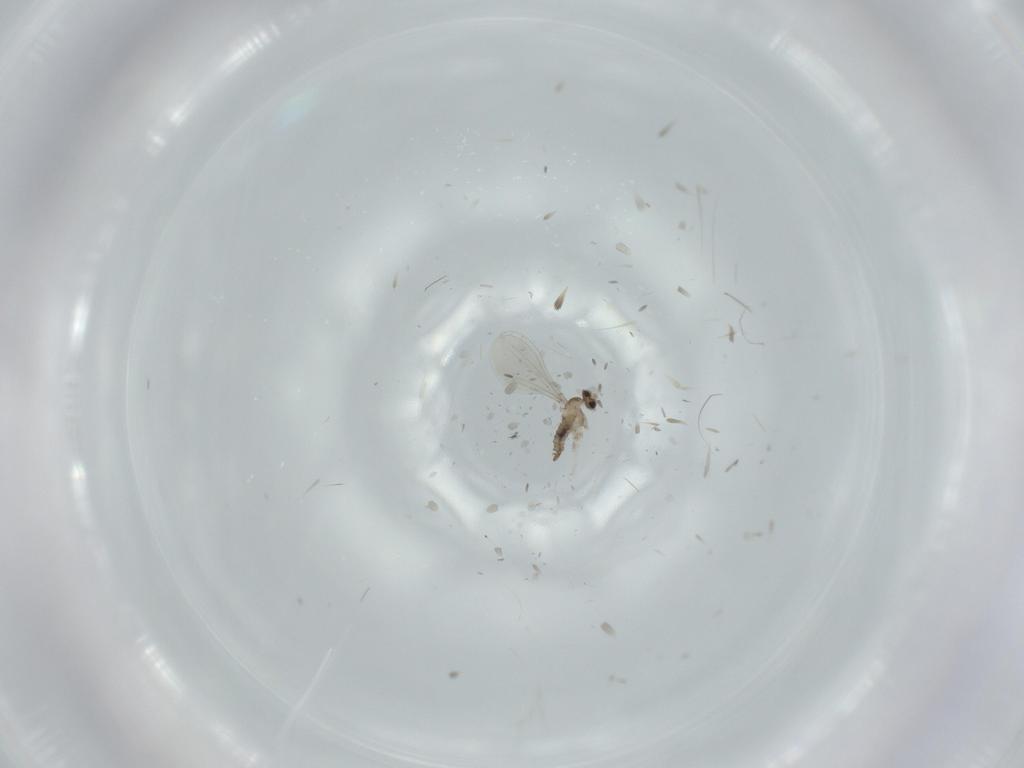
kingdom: Animalia
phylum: Arthropoda
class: Insecta
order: Diptera
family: Cecidomyiidae
